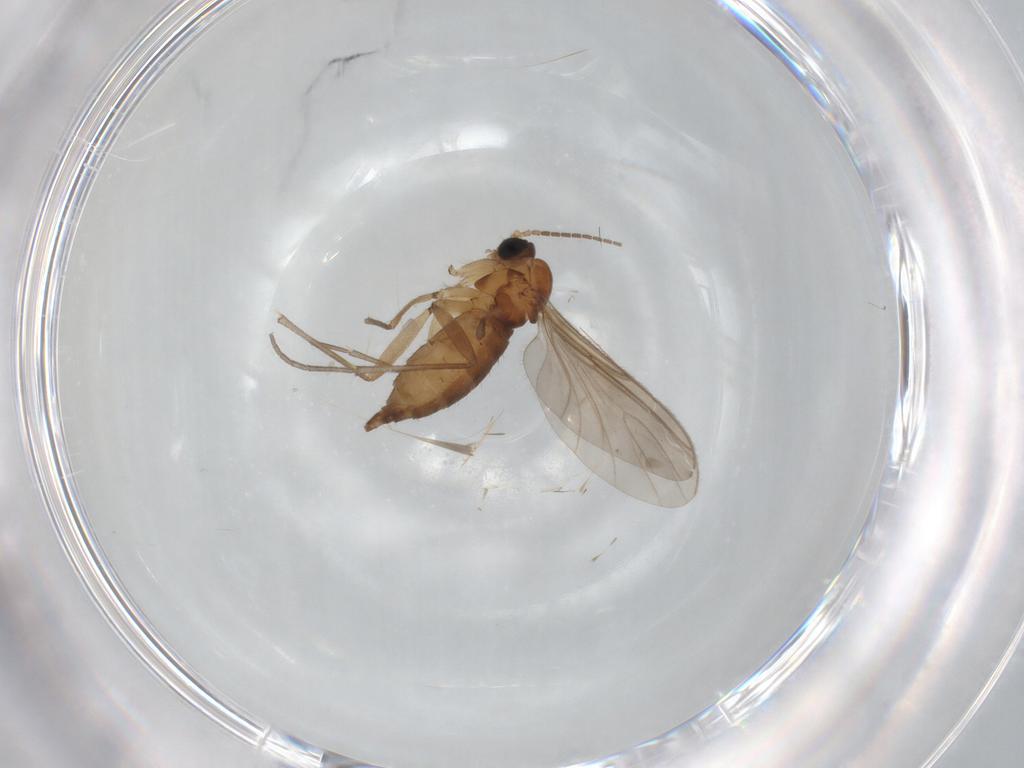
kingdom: Animalia
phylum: Arthropoda
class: Insecta
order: Diptera
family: Sciaridae
